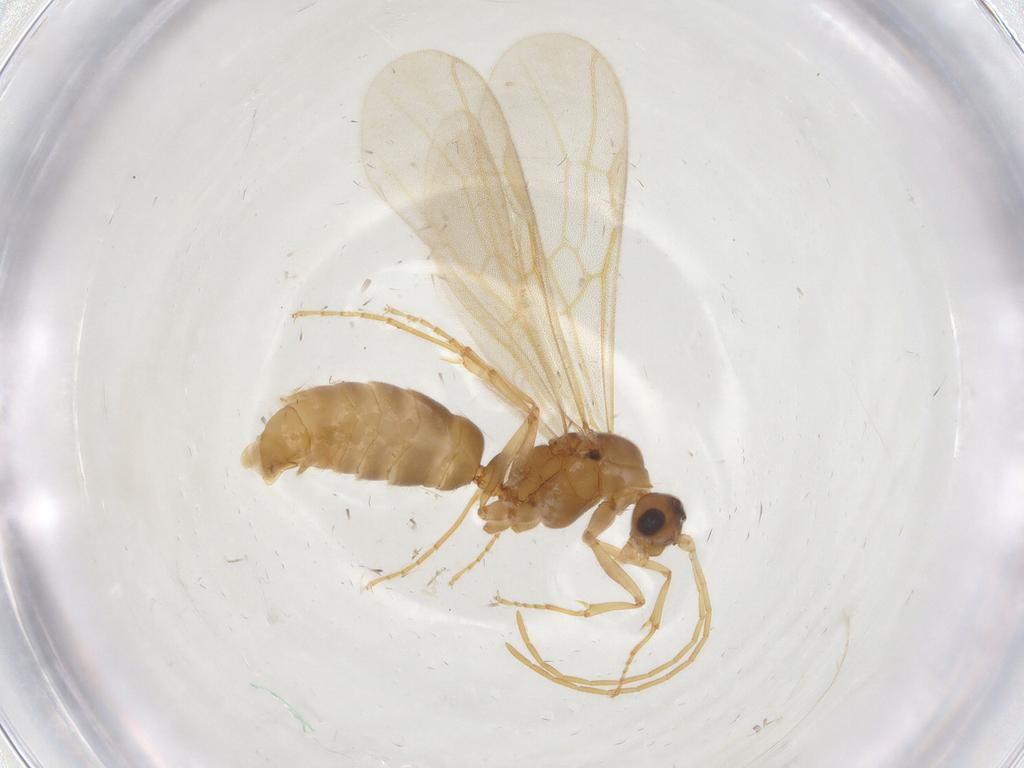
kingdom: Animalia
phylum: Arthropoda
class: Insecta
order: Hymenoptera
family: Formicidae
